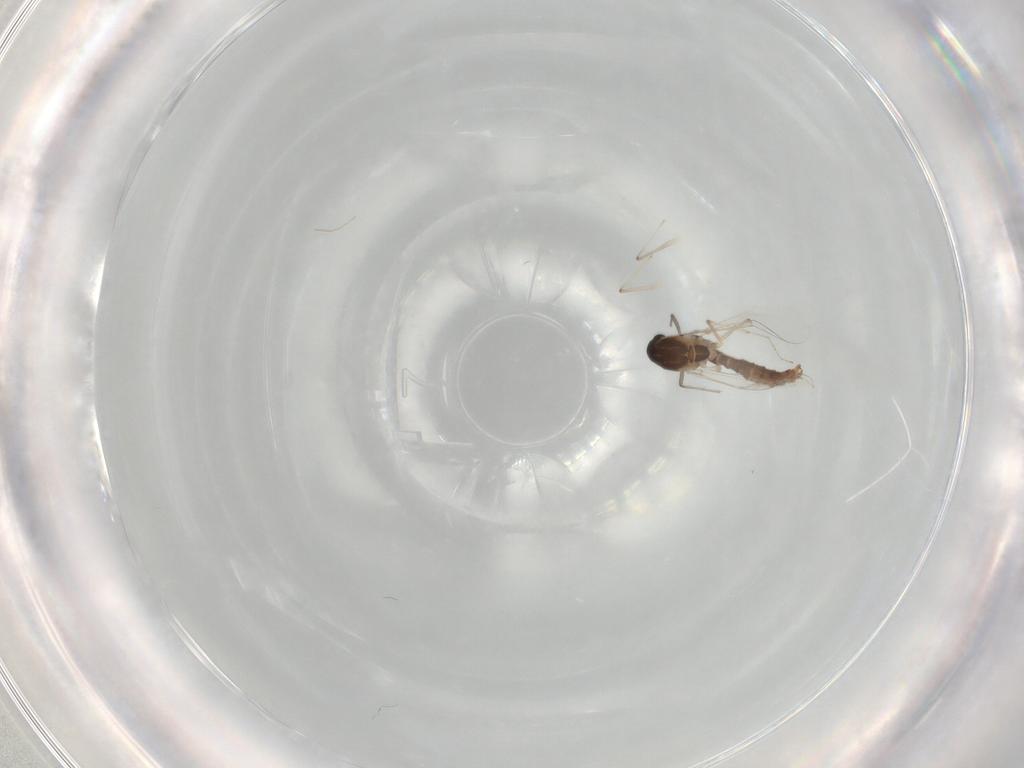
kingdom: Animalia
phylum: Arthropoda
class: Insecta
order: Diptera
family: Chironomidae
